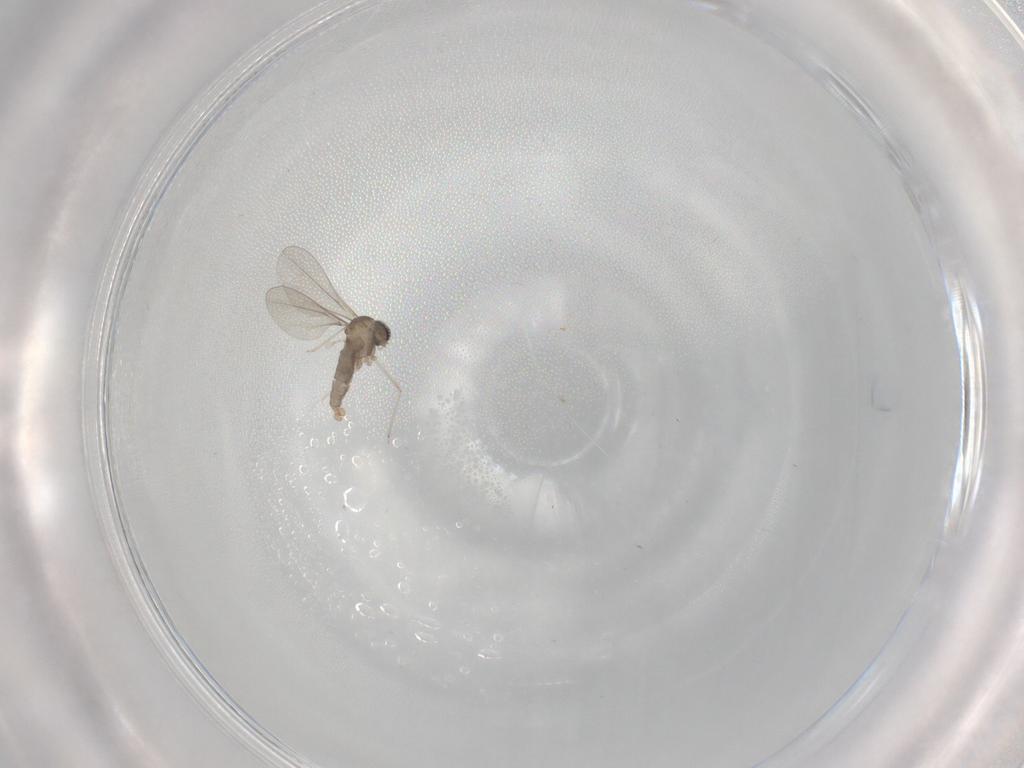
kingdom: Animalia
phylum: Arthropoda
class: Insecta
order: Diptera
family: Cecidomyiidae
